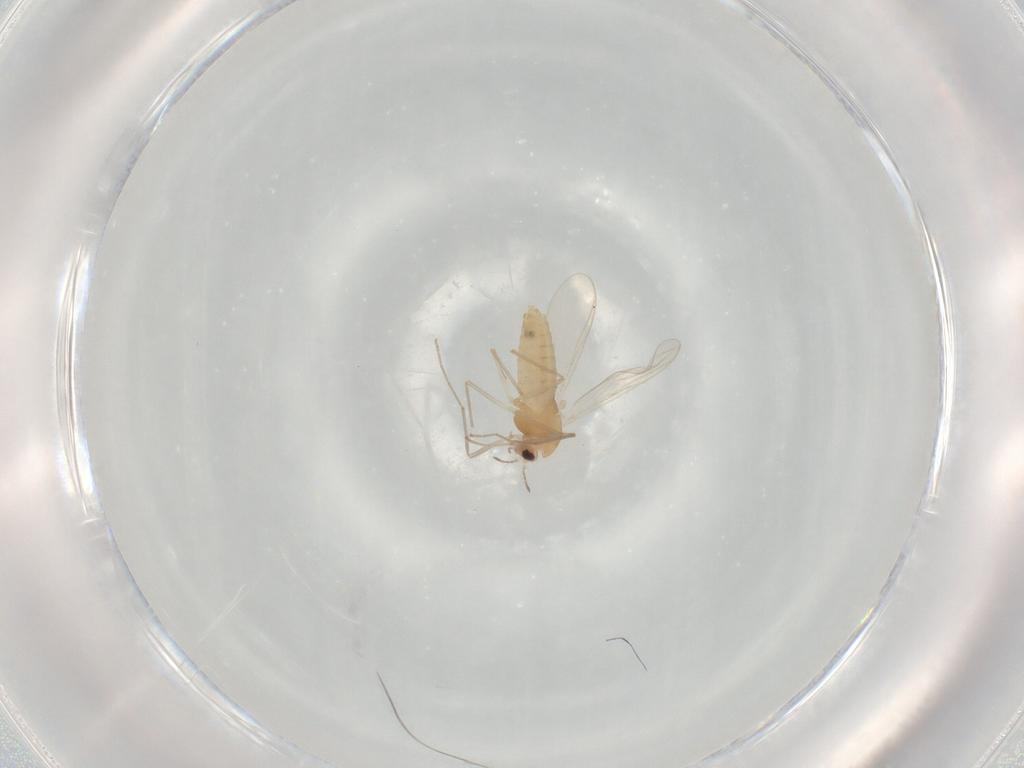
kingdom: Animalia
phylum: Arthropoda
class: Insecta
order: Diptera
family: Chironomidae
